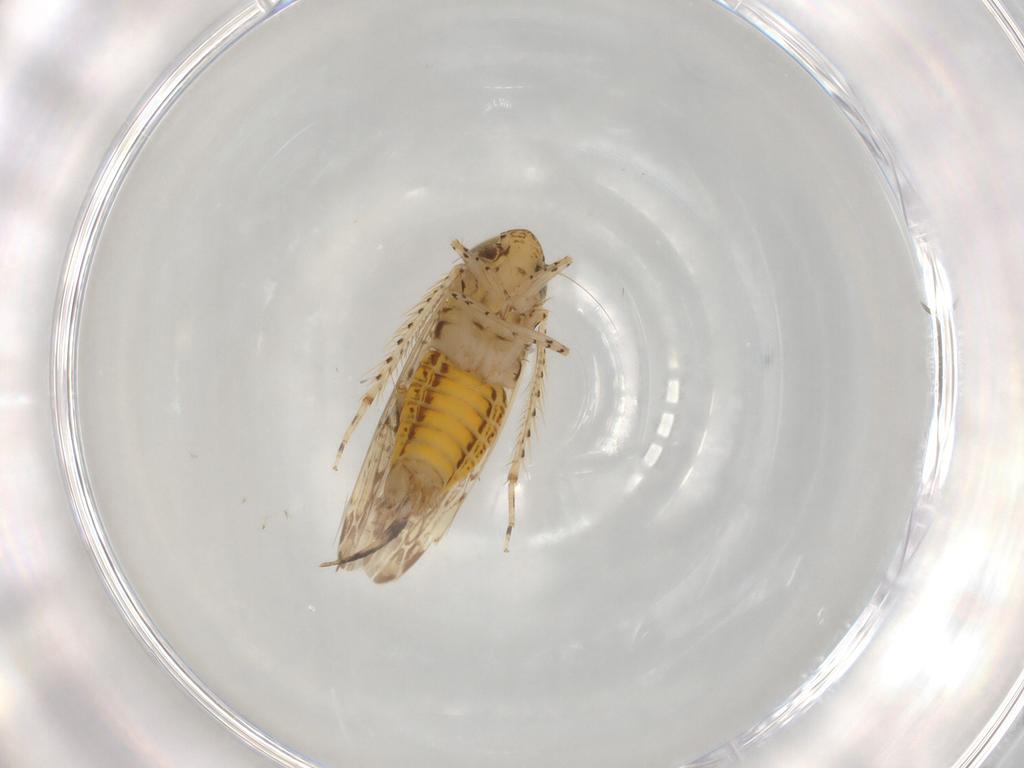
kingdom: Animalia
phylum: Arthropoda
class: Insecta
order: Hemiptera
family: Cicadellidae
